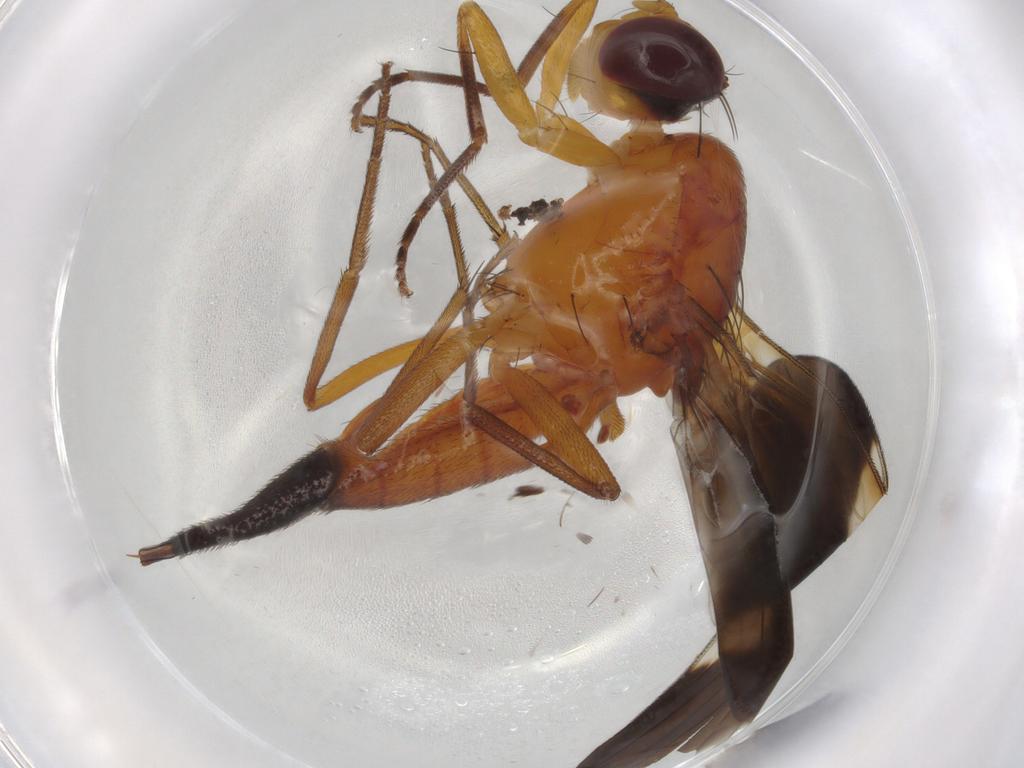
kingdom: Animalia
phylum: Arthropoda
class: Insecta
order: Diptera
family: Tephritidae
